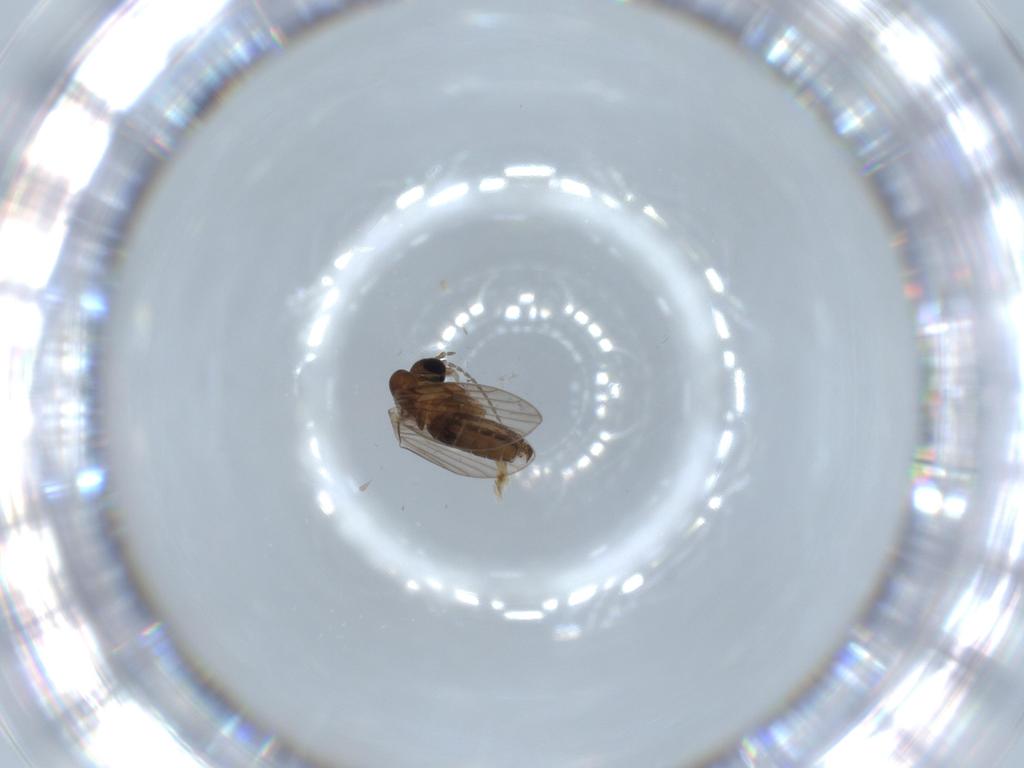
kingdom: Animalia
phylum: Arthropoda
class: Insecta
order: Diptera
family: Psychodidae
